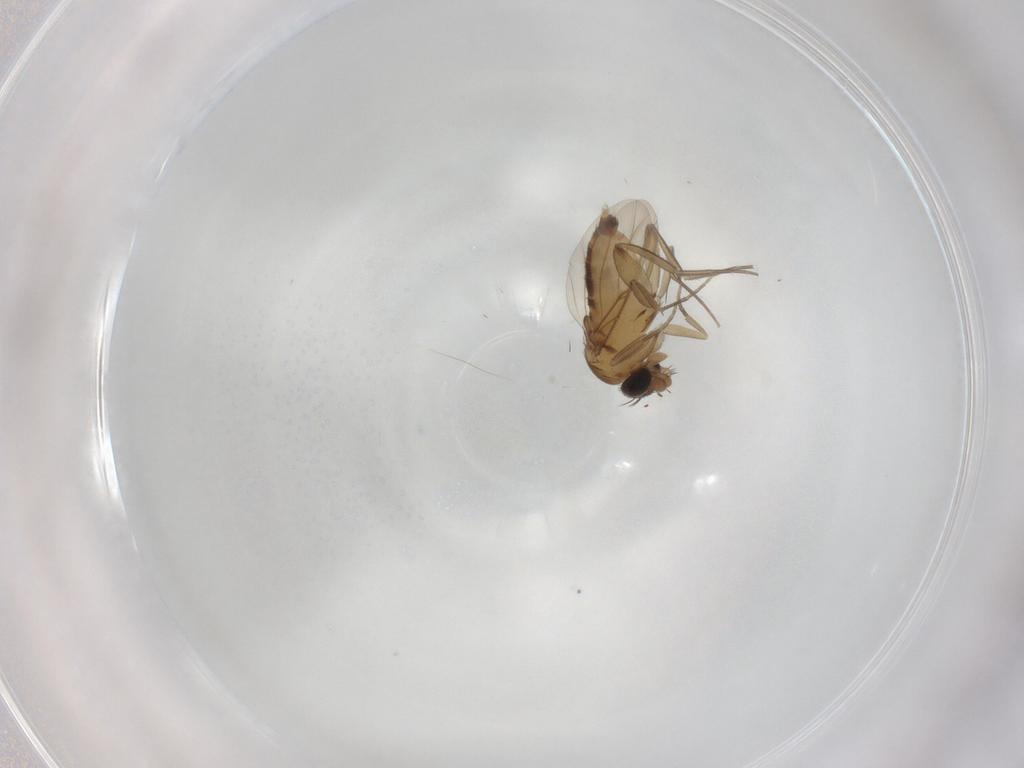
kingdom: Animalia
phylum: Arthropoda
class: Insecta
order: Diptera
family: Phoridae
